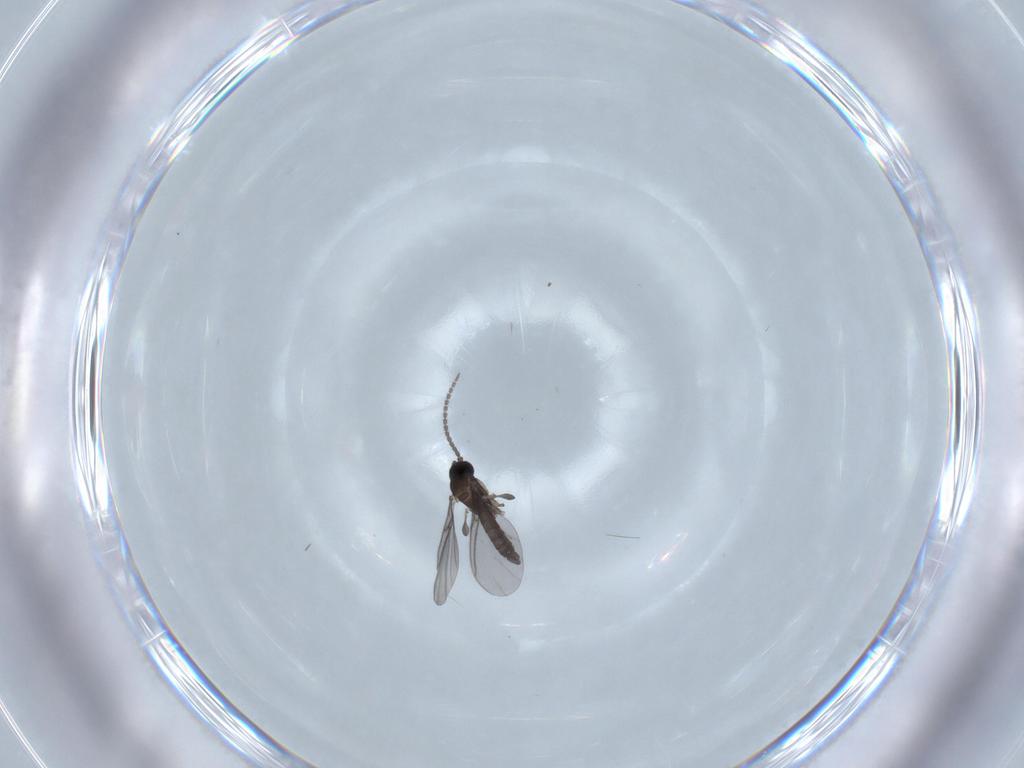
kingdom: Animalia
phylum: Arthropoda
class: Insecta
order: Diptera
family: Sciaridae
